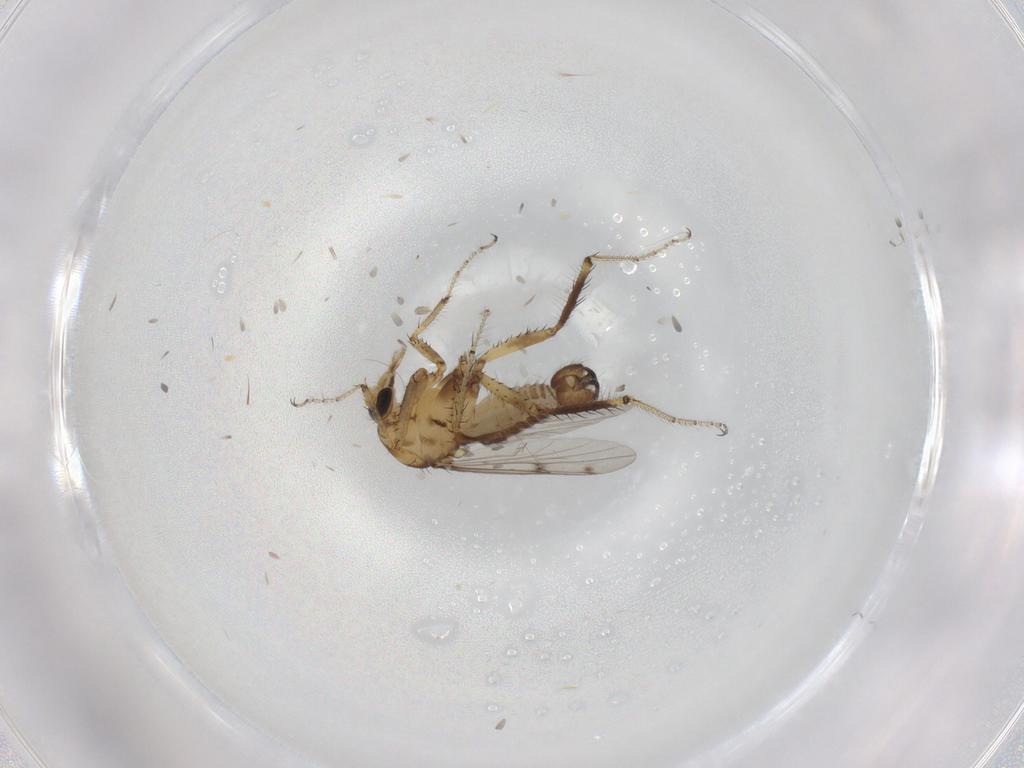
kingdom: Animalia
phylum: Arthropoda
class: Insecta
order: Diptera
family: Ceratopogonidae
